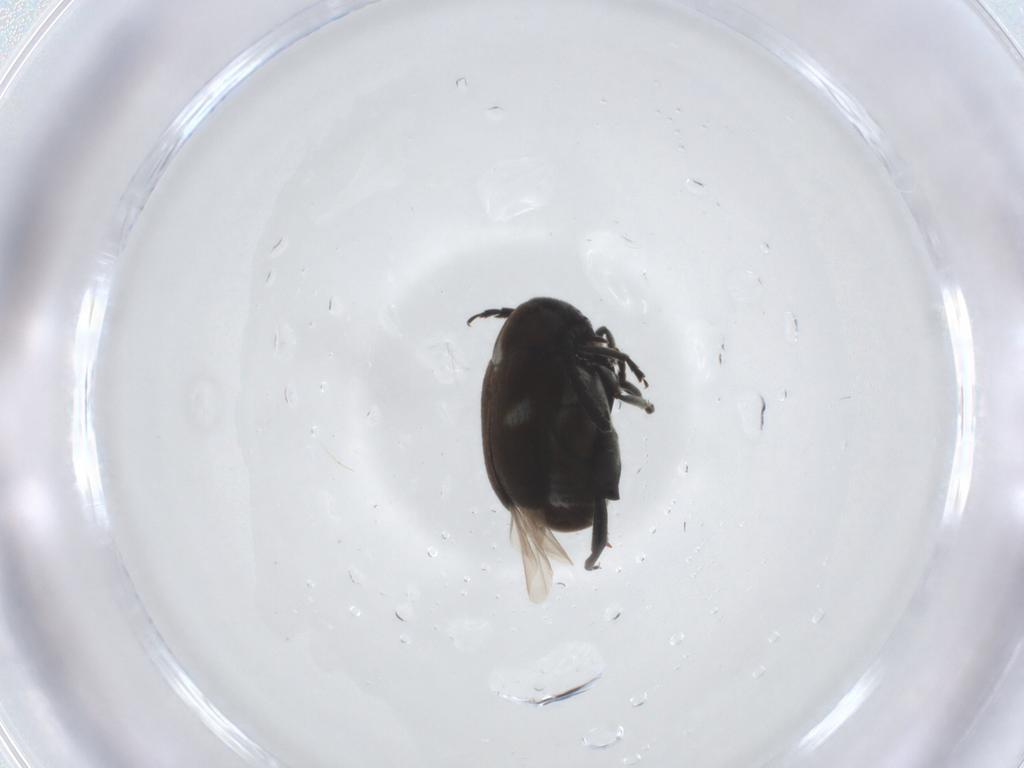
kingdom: Animalia
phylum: Arthropoda
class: Insecta
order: Coleoptera
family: Chrysomelidae
